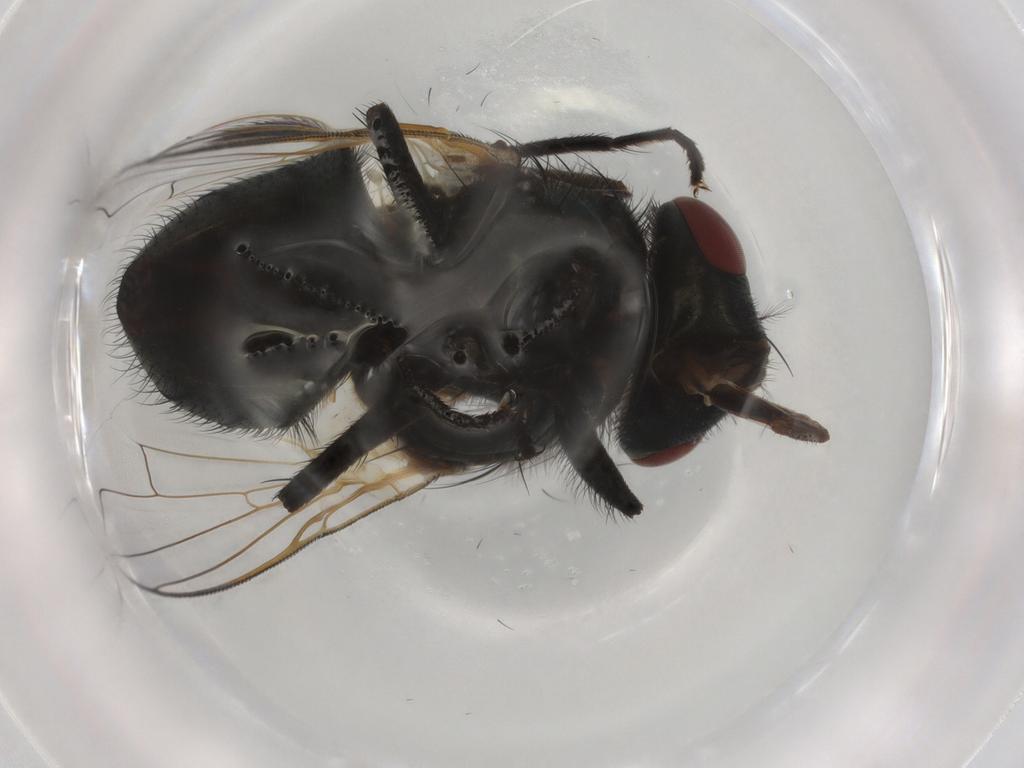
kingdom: Animalia
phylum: Arthropoda
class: Insecta
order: Diptera
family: Muscidae
